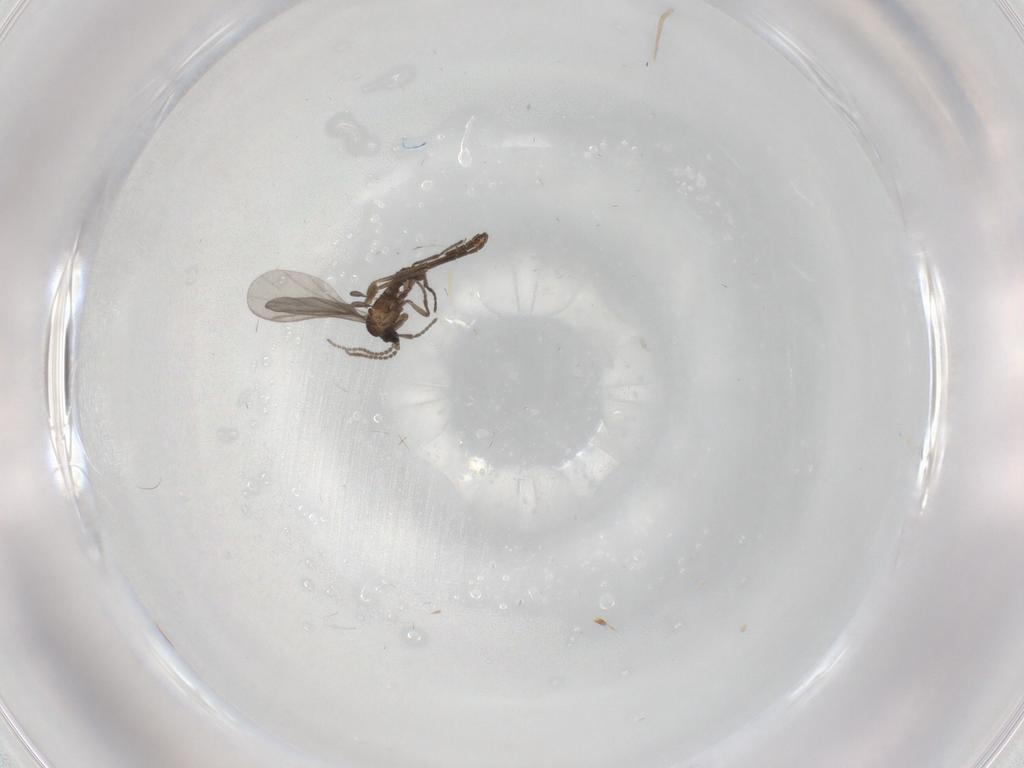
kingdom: Animalia
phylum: Arthropoda
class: Insecta
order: Diptera
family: Sciaridae
